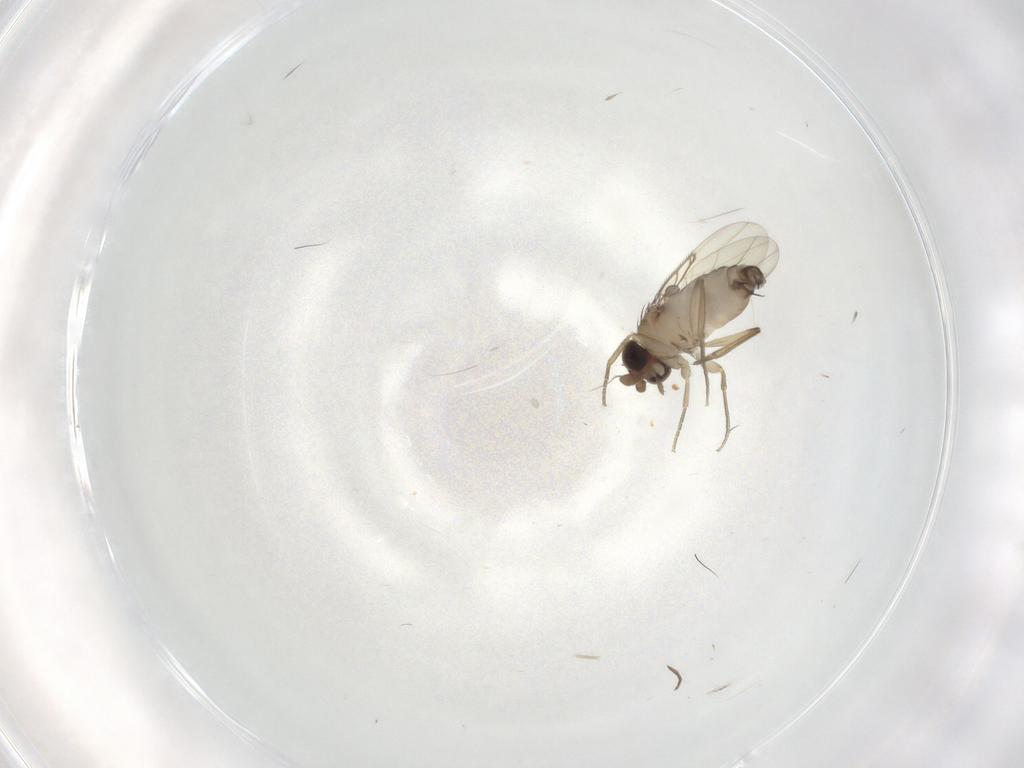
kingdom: Animalia
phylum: Arthropoda
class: Insecta
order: Diptera
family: Phoridae
